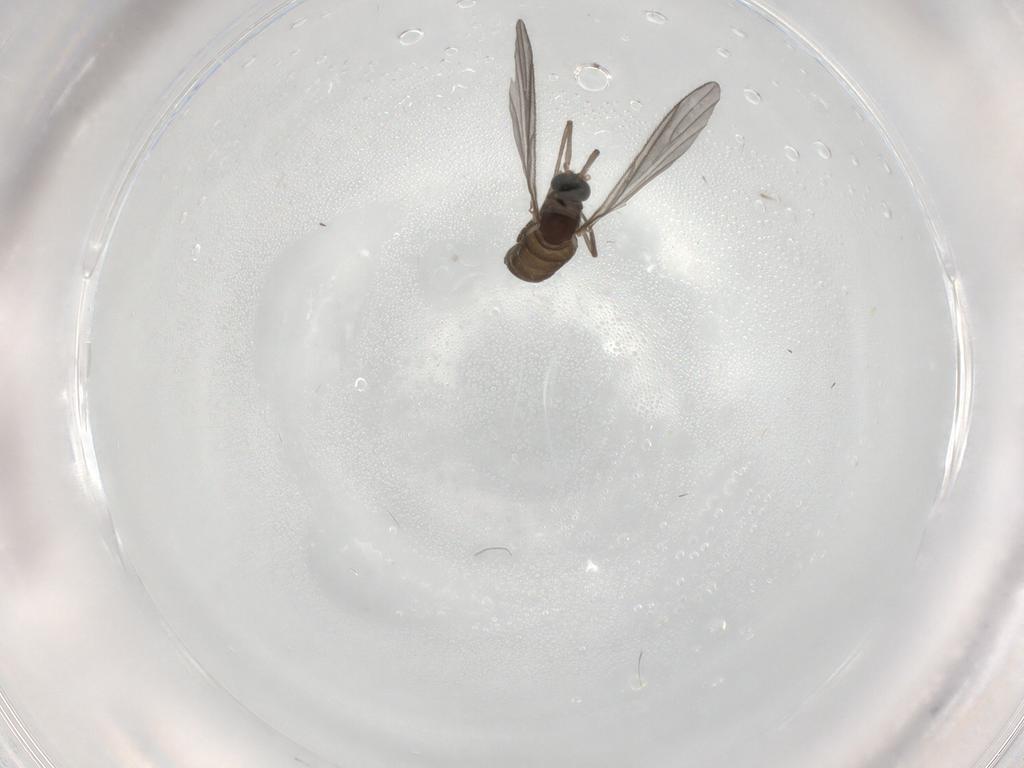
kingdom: Animalia
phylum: Arthropoda
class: Insecta
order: Diptera
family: Sciaridae
